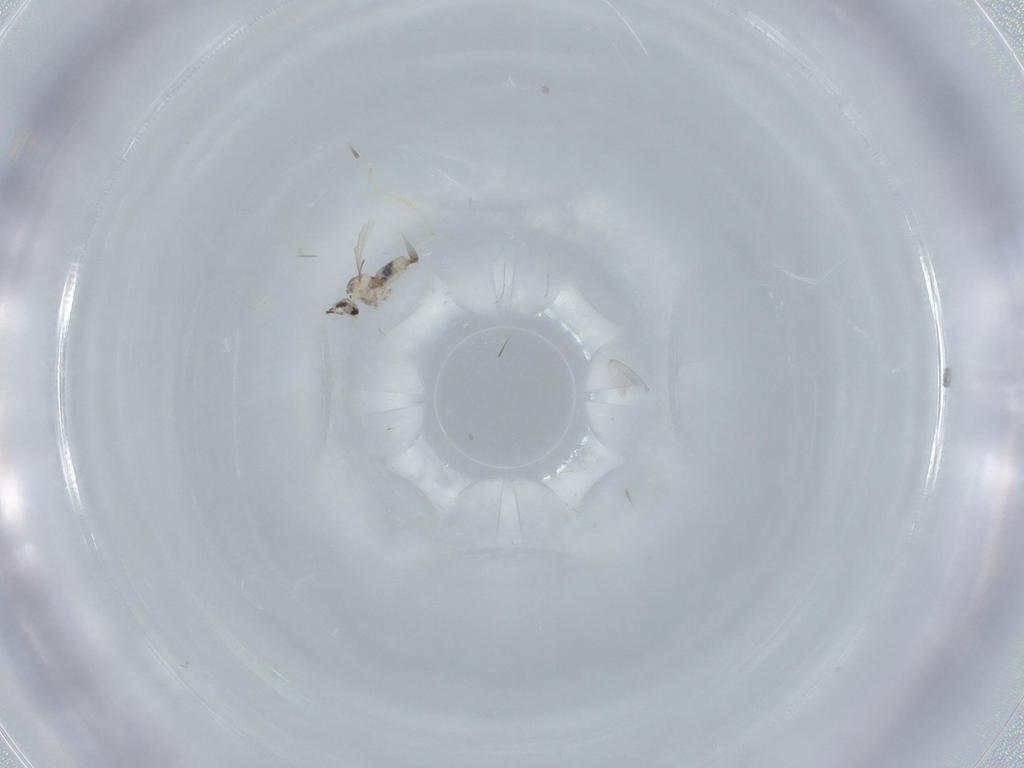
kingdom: Animalia
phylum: Arthropoda
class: Insecta
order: Diptera
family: Cecidomyiidae
